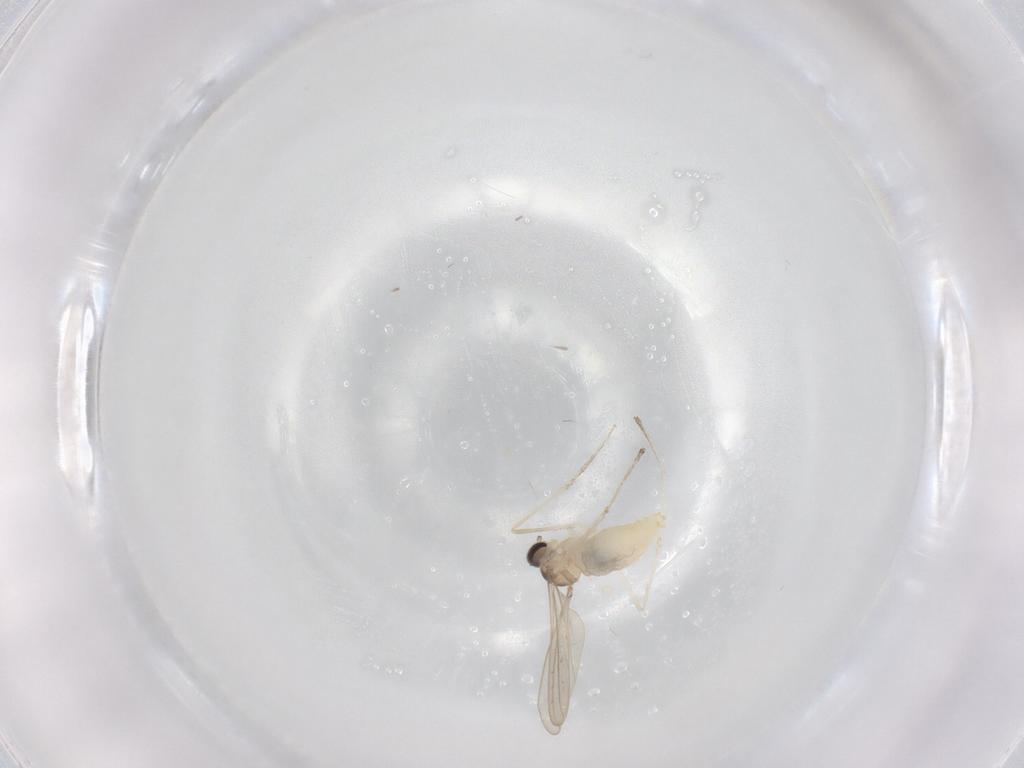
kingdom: Animalia
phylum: Arthropoda
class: Insecta
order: Diptera
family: Cecidomyiidae
